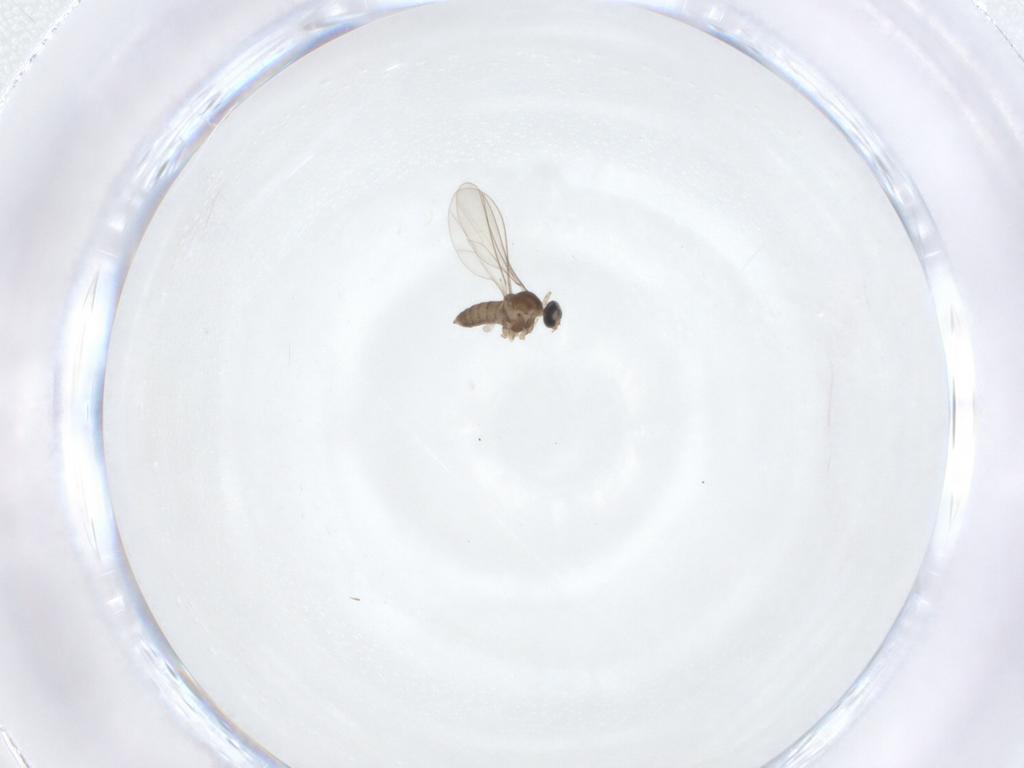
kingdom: Animalia
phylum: Arthropoda
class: Insecta
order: Diptera
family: Cecidomyiidae
